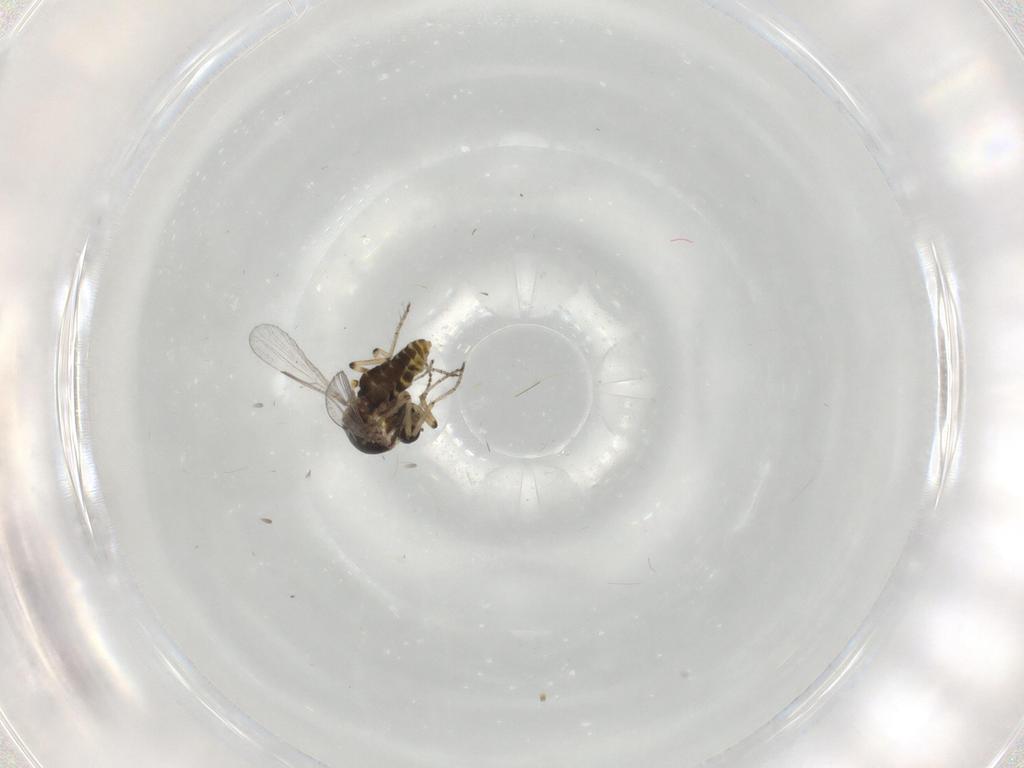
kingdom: Animalia
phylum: Arthropoda
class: Insecta
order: Diptera
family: Chironomidae
